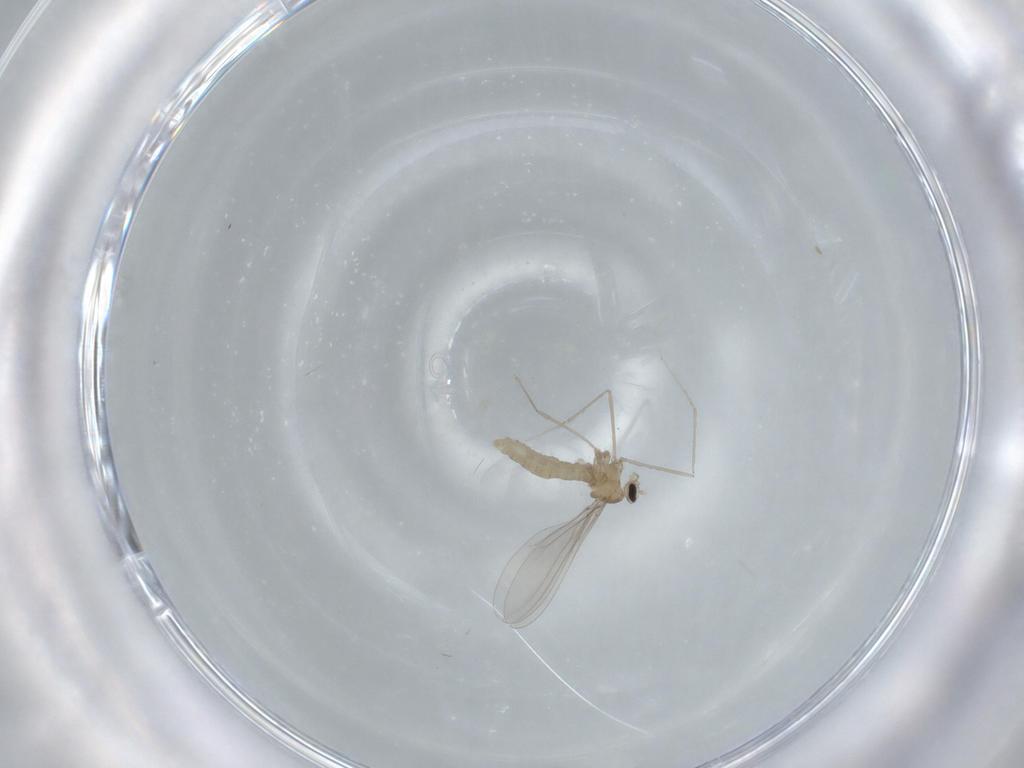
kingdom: Animalia
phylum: Arthropoda
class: Insecta
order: Diptera
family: Cecidomyiidae
